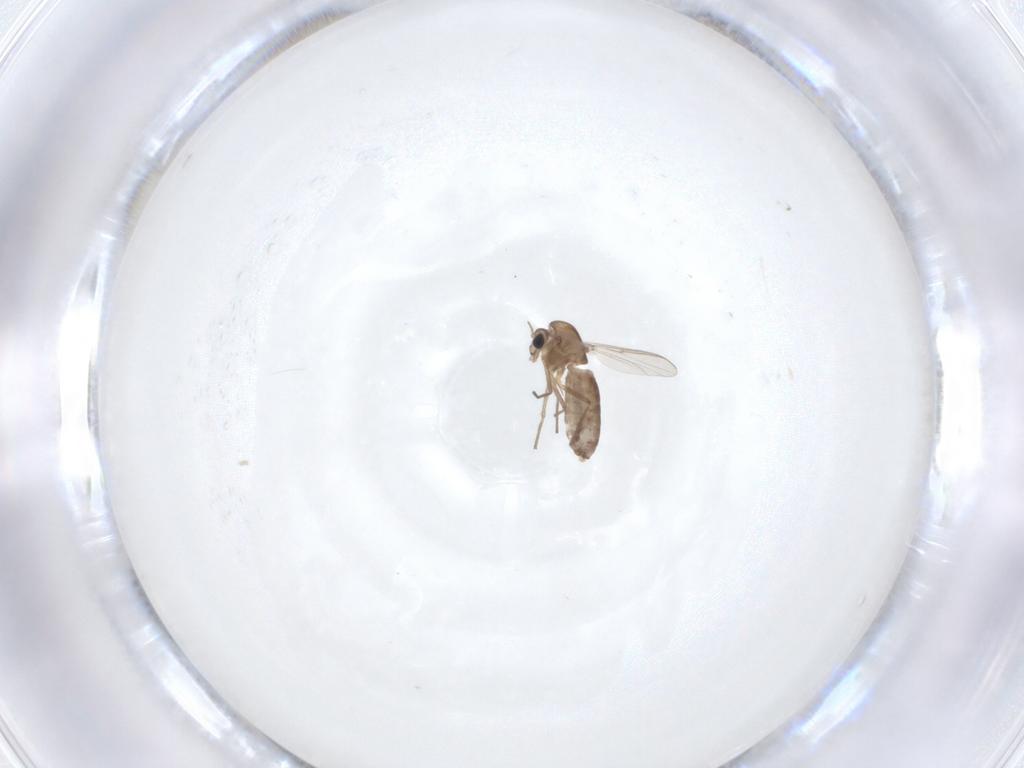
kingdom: Animalia
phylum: Arthropoda
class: Insecta
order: Diptera
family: Chironomidae
